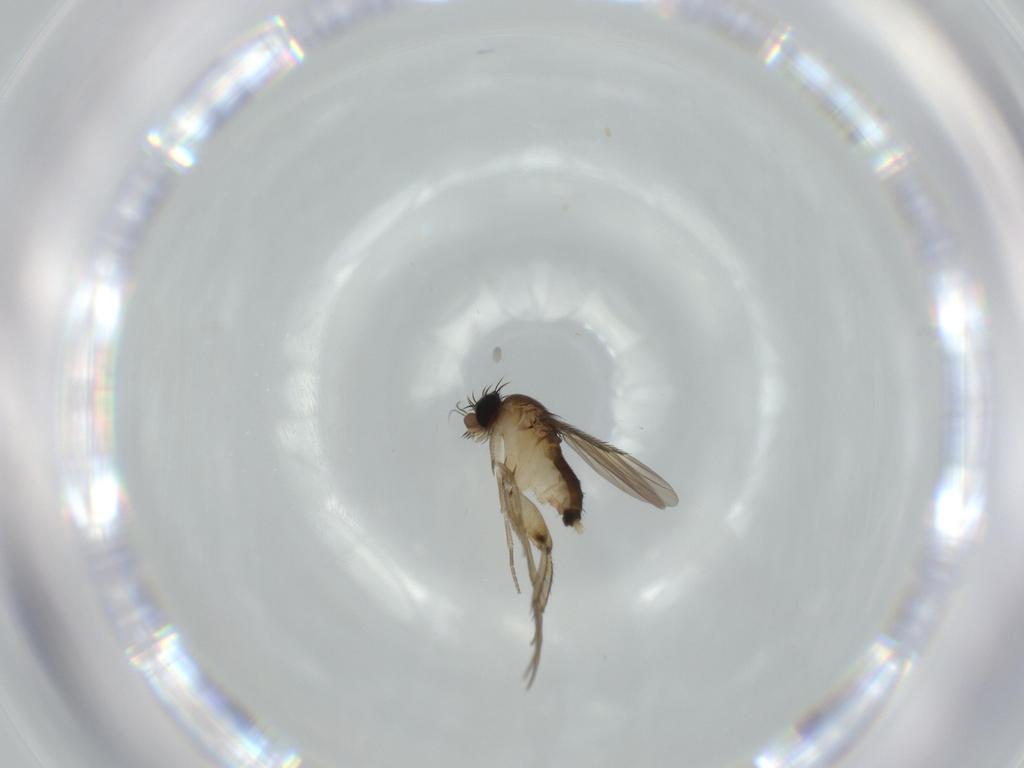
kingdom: Animalia
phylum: Arthropoda
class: Insecta
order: Diptera
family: Phoridae
